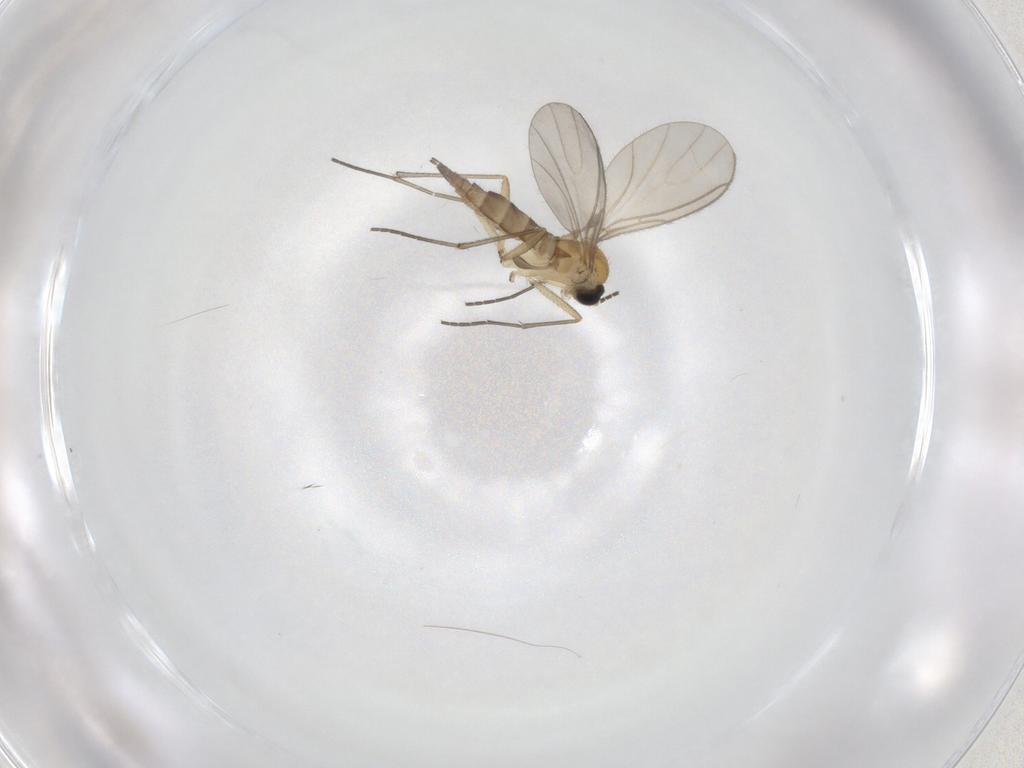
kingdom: Animalia
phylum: Arthropoda
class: Insecta
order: Diptera
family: Sciaridae
